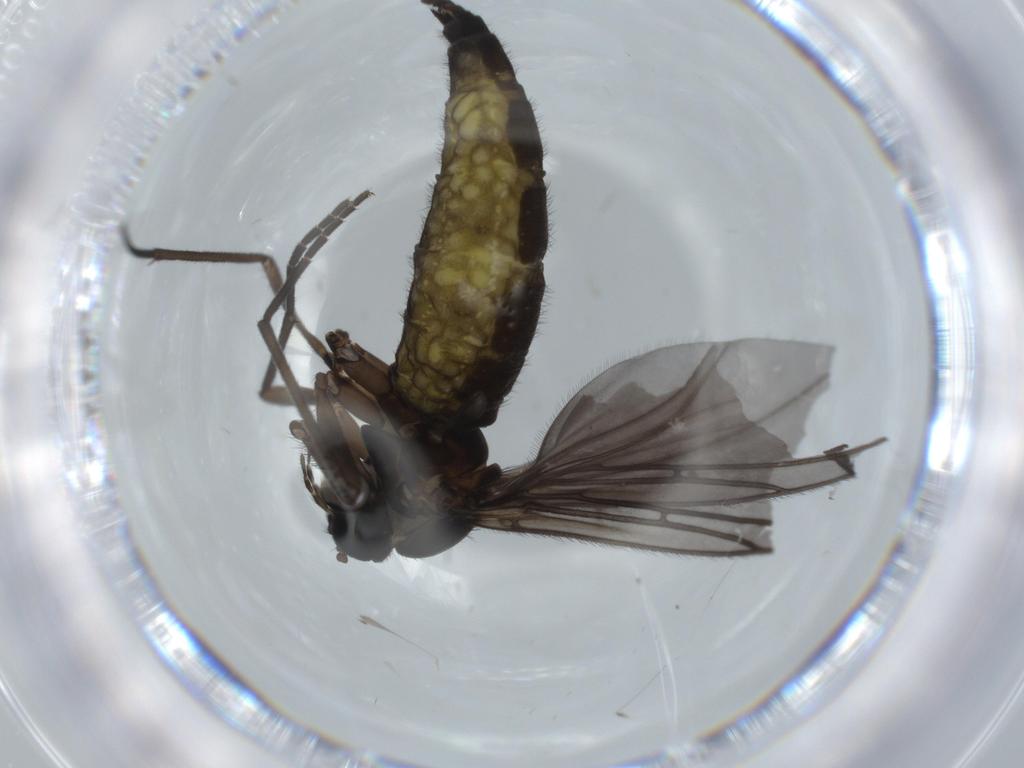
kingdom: Animalia
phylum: Arthropoda
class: Insecta
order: Diptera
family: Sciaridae
